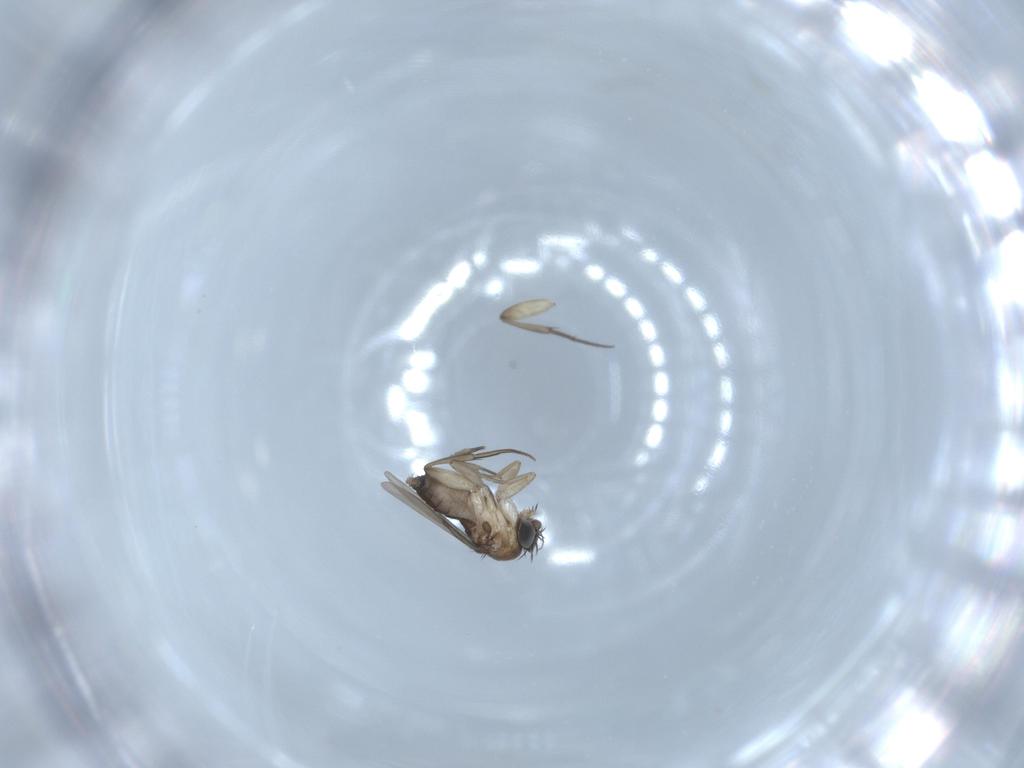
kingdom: Animalia
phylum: Arthropoda
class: Insecta
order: Diptera
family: Phoridae
